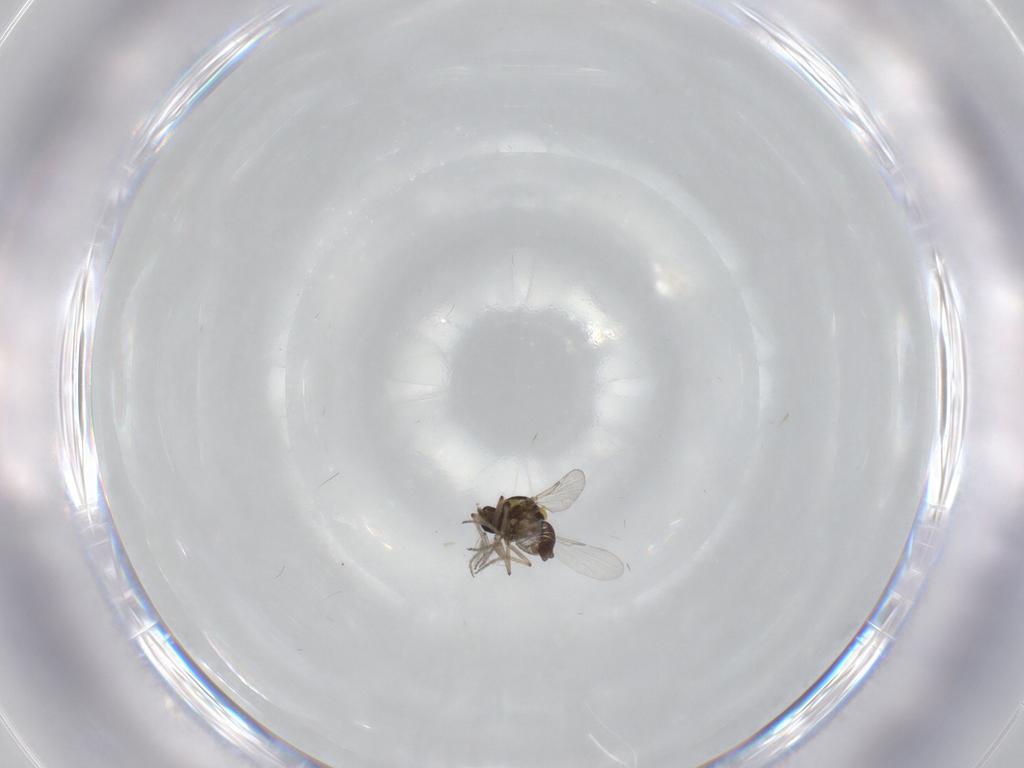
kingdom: Animalia
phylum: Arthropoda
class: Insecta
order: Diptera
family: Ceratopogonidae
